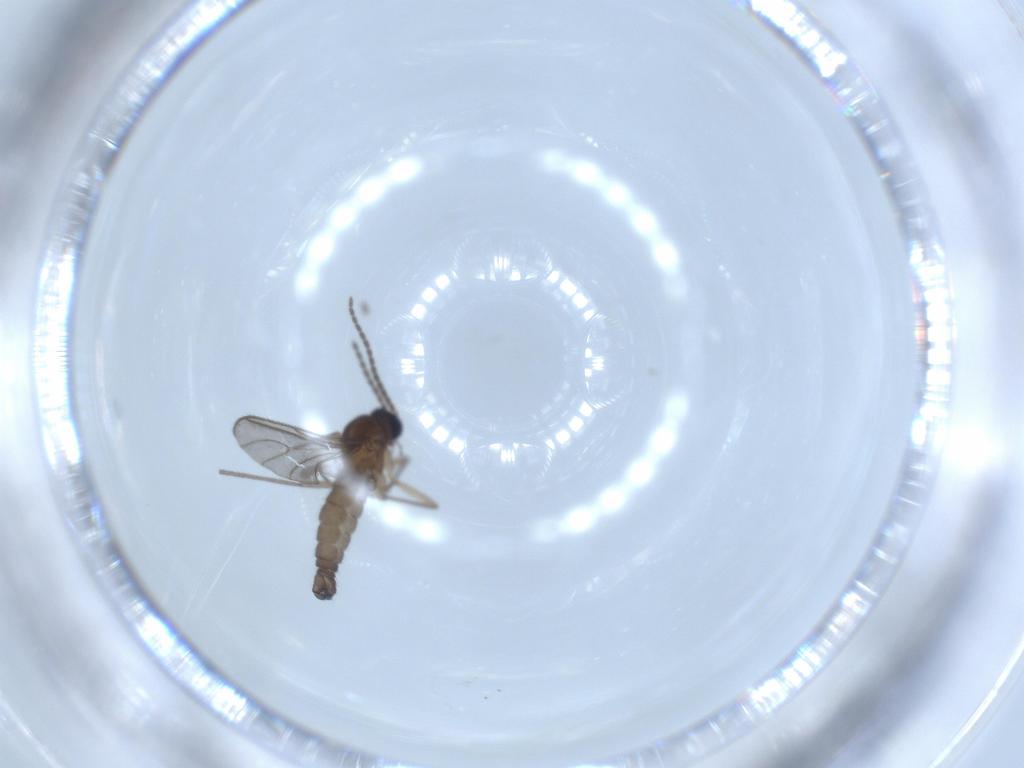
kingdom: Animalia
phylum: Arthropoda
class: Insecta
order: Diptera
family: Sciaridae
